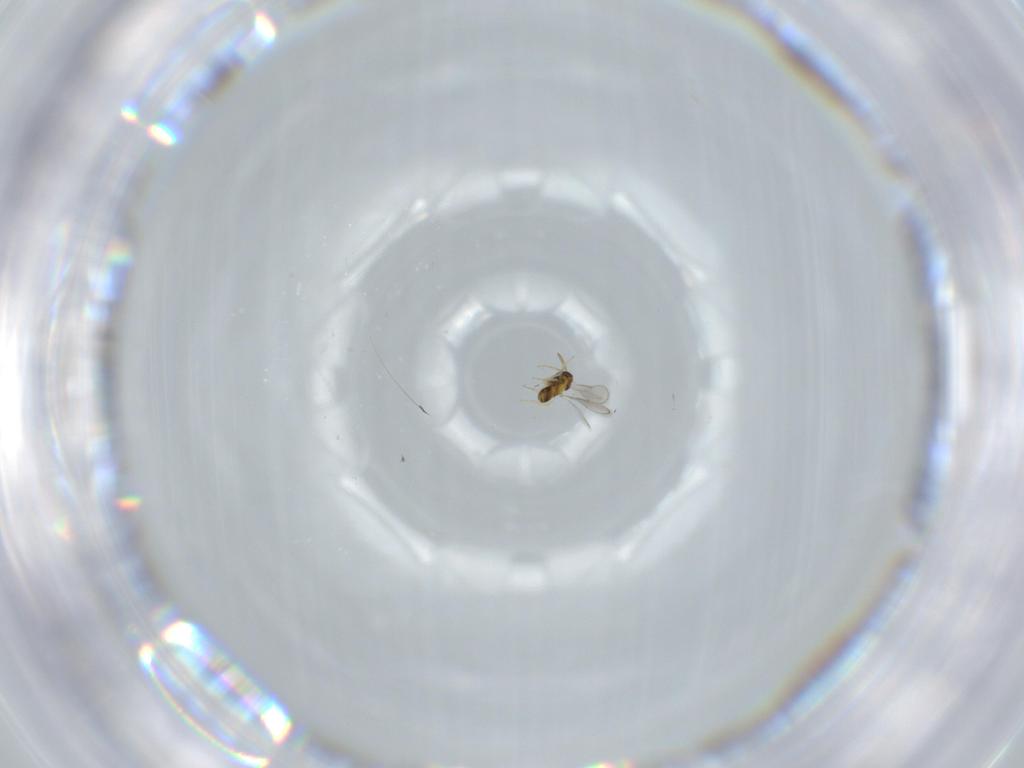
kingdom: Animalia
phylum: Arthropoda
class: Insecta
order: Hymenoptera
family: Aphelinidae
